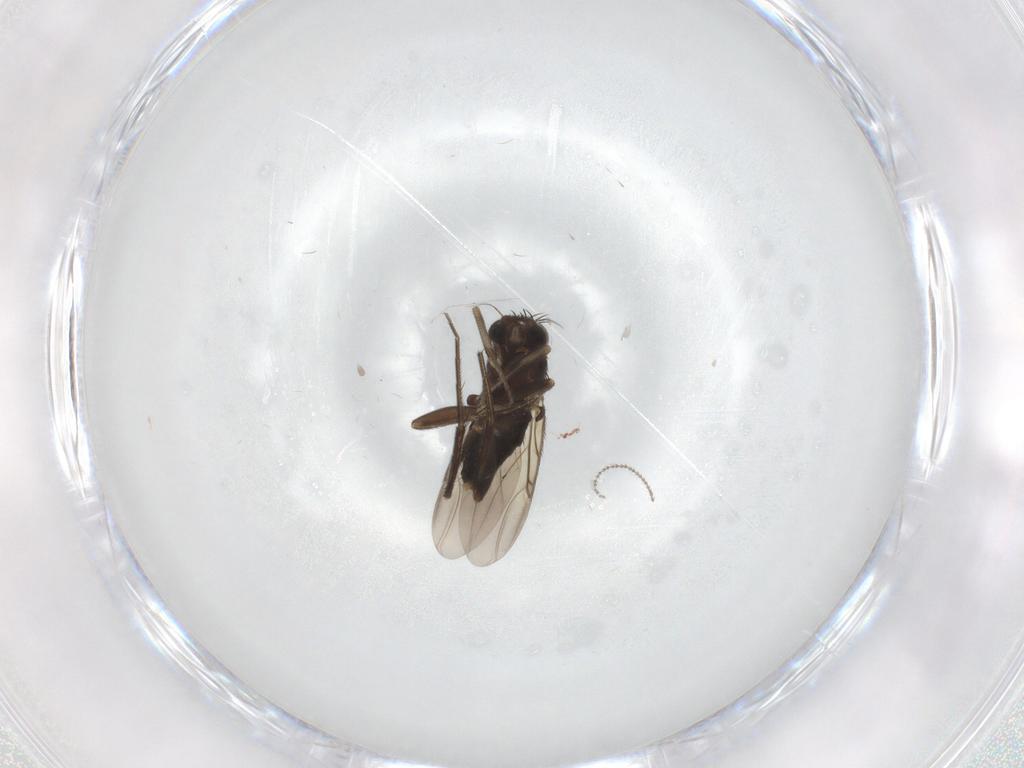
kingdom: Animalia
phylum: Arthropoda
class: Insecta
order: Diptera
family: Phoridae
